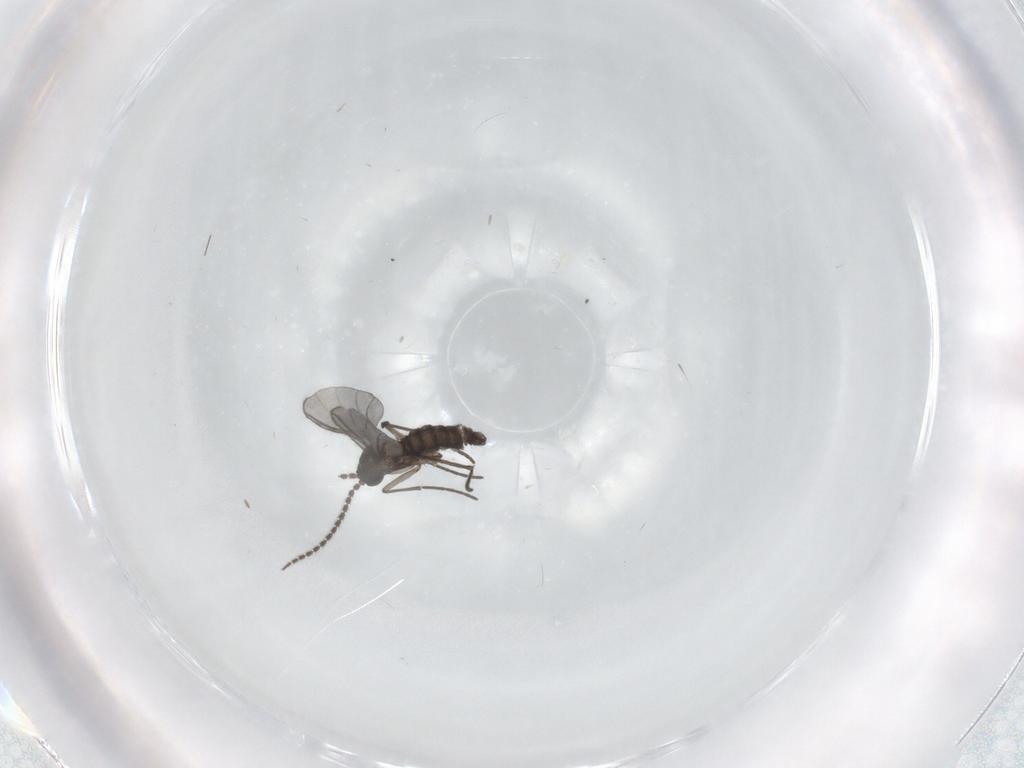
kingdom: Animalia
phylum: Arthropoda
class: Insecta
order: Diptera
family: Chironomidae
